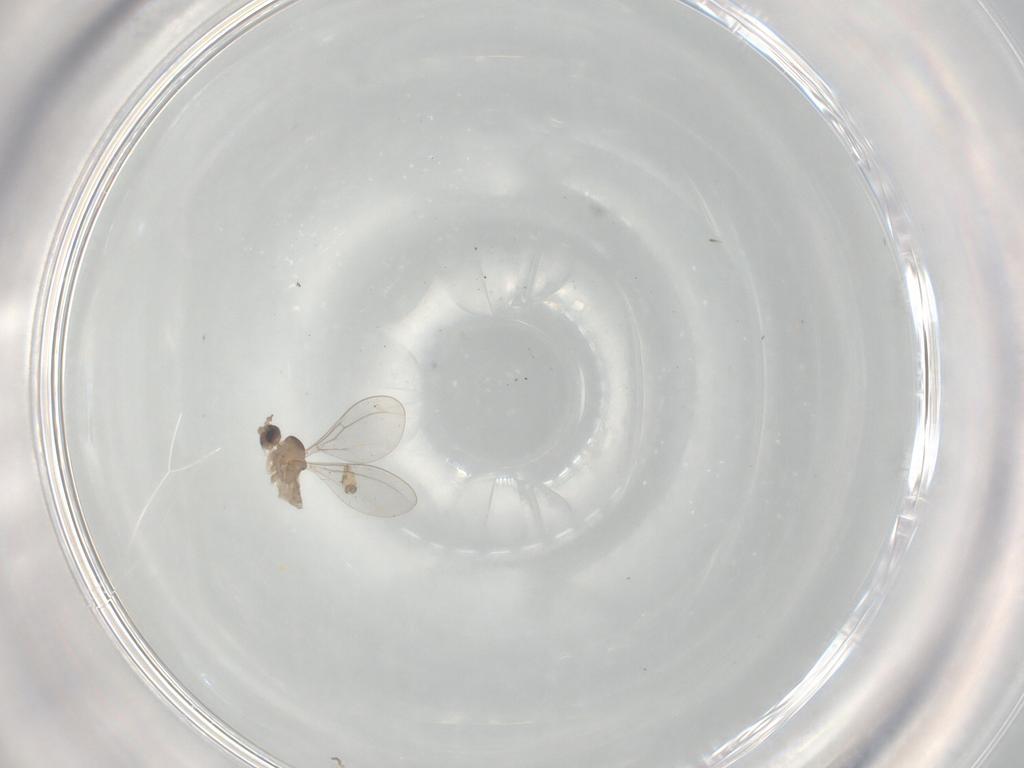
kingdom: Animalia
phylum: Arthropoda
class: Insecta
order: Diptera
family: Cecidomyiidae
